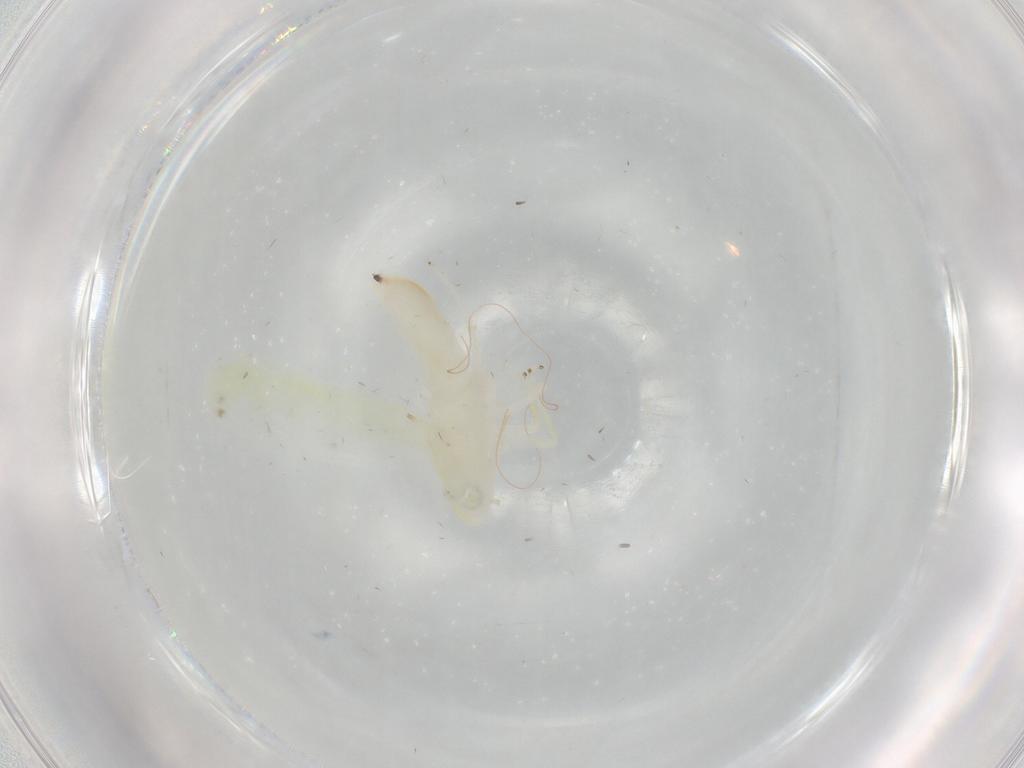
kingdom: Animalia
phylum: Arthropoda
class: Insecta
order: Hemiptera
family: Cicadellidae
